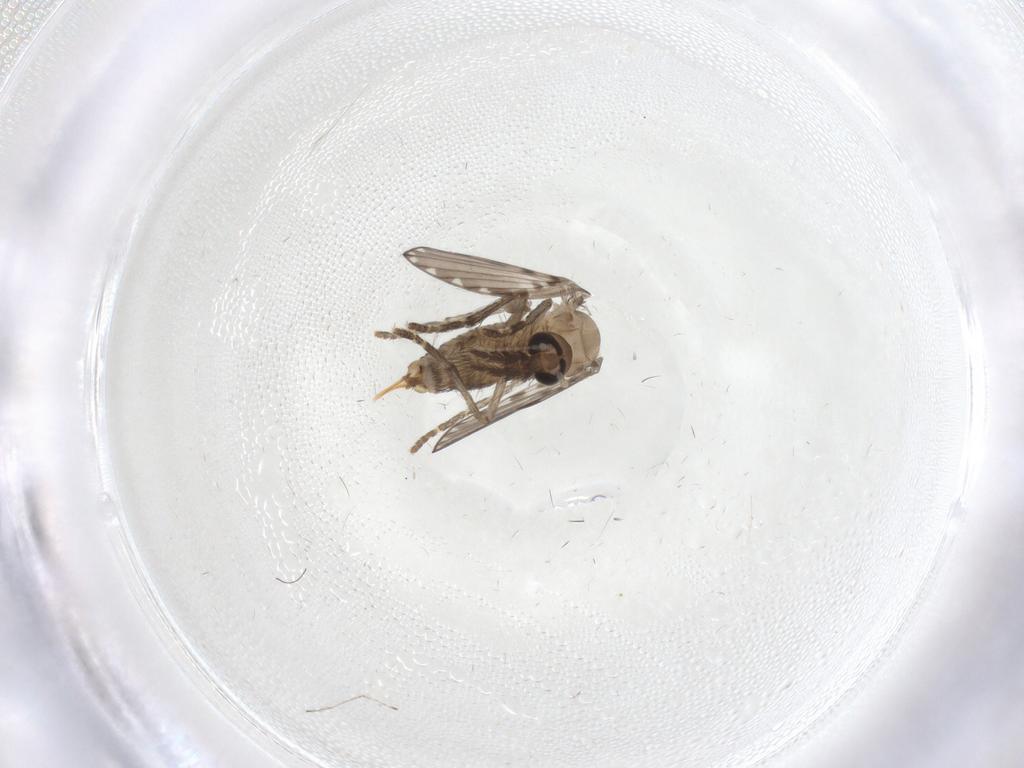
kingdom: Animalia
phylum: Arthropoda
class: Insecta
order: Diptera
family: Psychodidae
